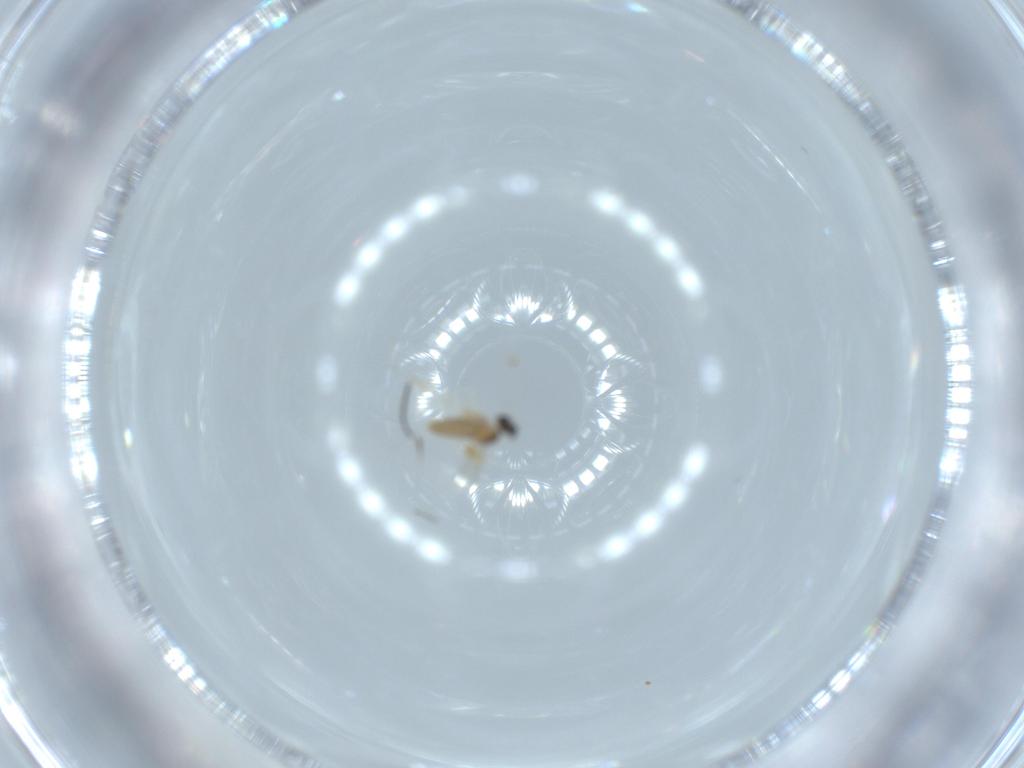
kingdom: Animalia
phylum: Arthropoda
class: Insecta
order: Diptera
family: Cecidomyiidae
